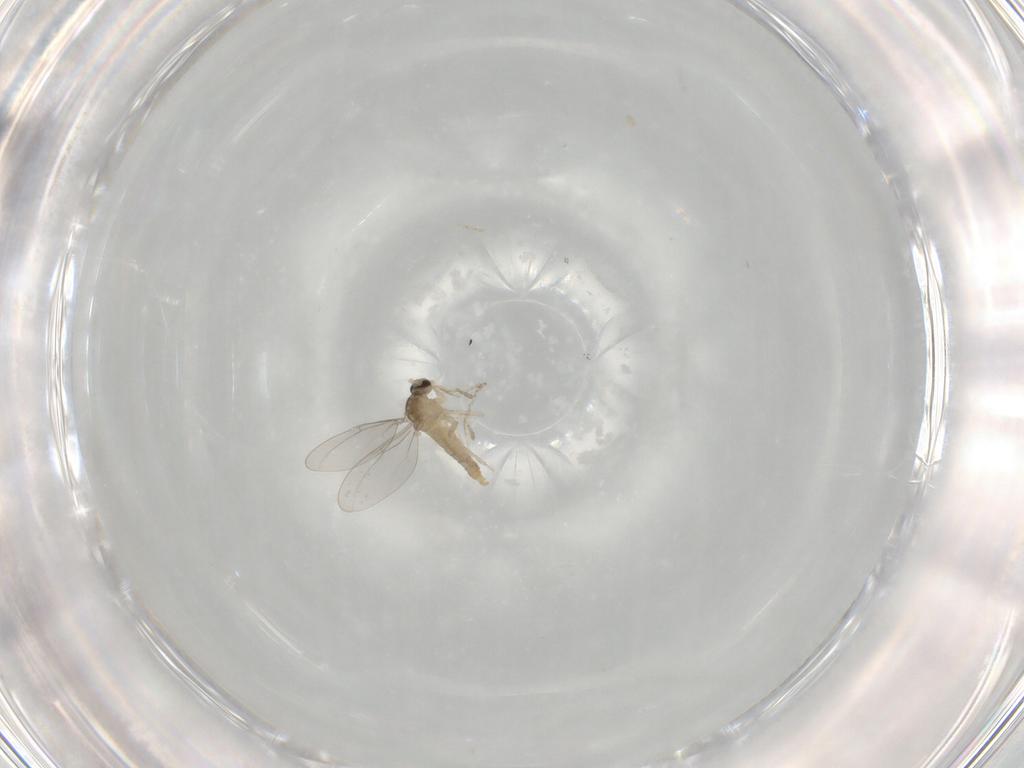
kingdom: Animalia
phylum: Arthropoda
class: Insecta
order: Diptera
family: Cecidomyiidae
